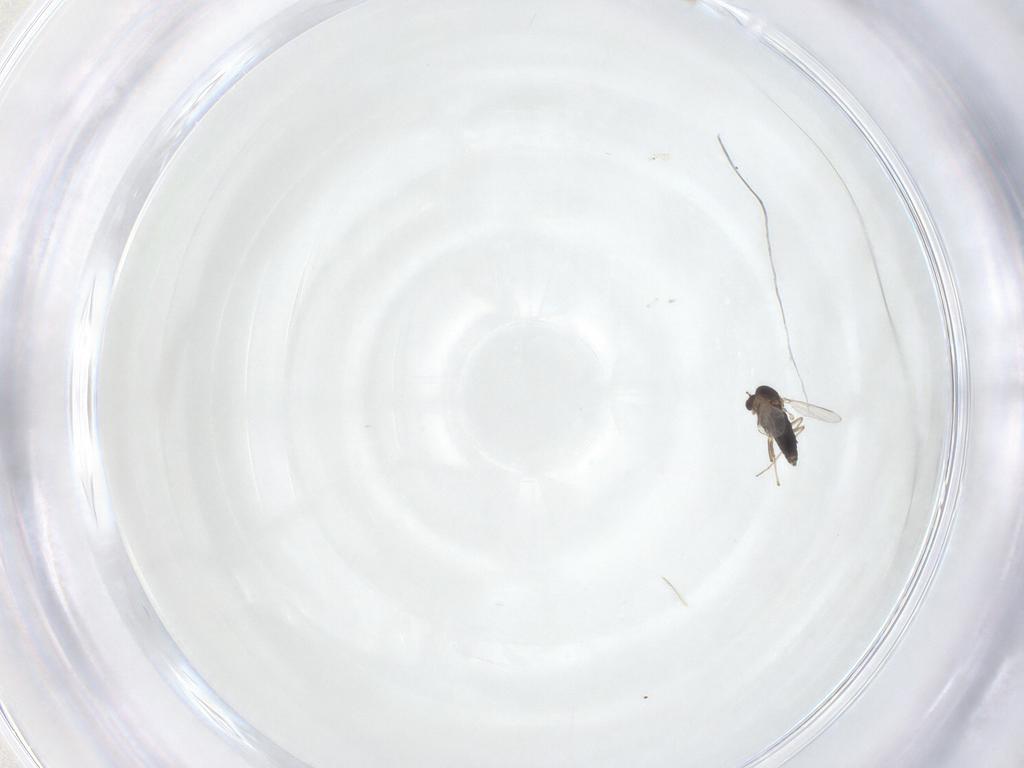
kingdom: Animalia
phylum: Arthropoda
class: Insecta
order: Diptera
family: Cecidomyiidae
